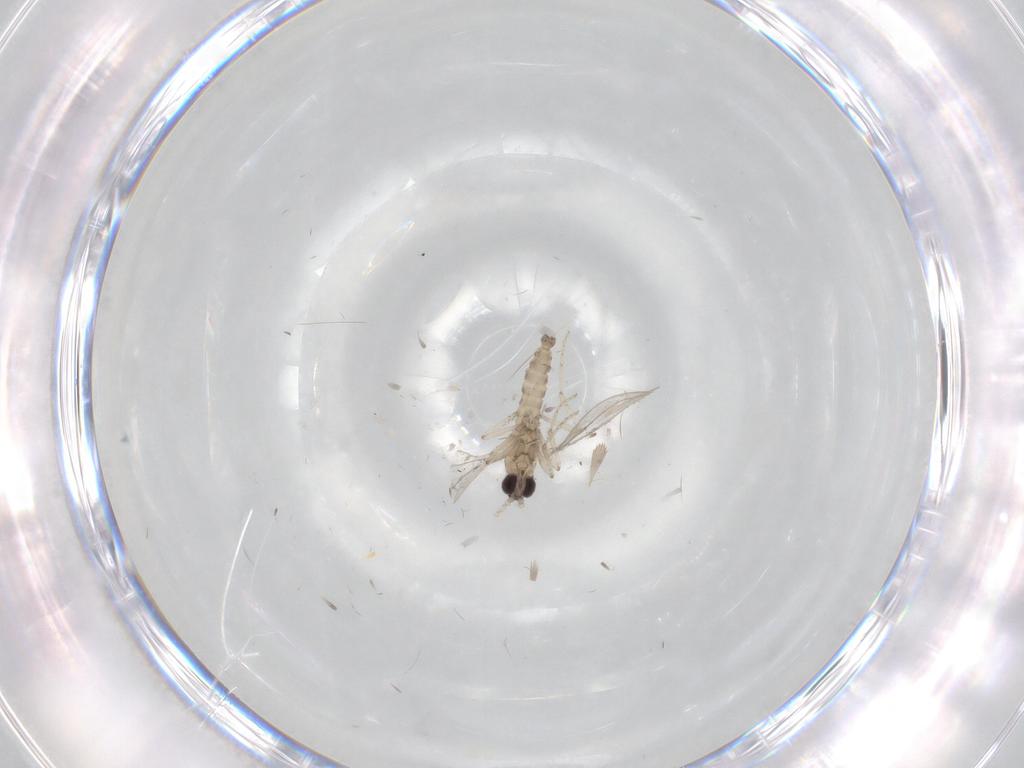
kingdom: Animalia
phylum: Arthropoda
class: Insecta
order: Diptera
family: Cecidomyiidae
